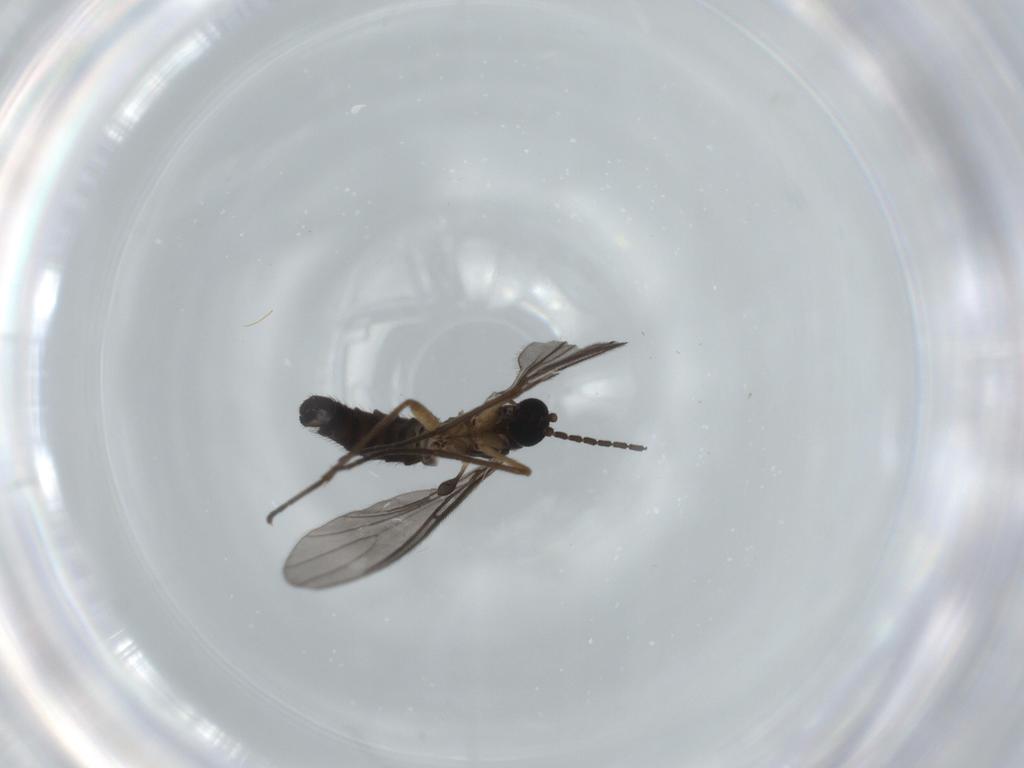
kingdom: Animalia
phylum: Arthropoda
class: Insecta
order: Diptera
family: Sciaridae
